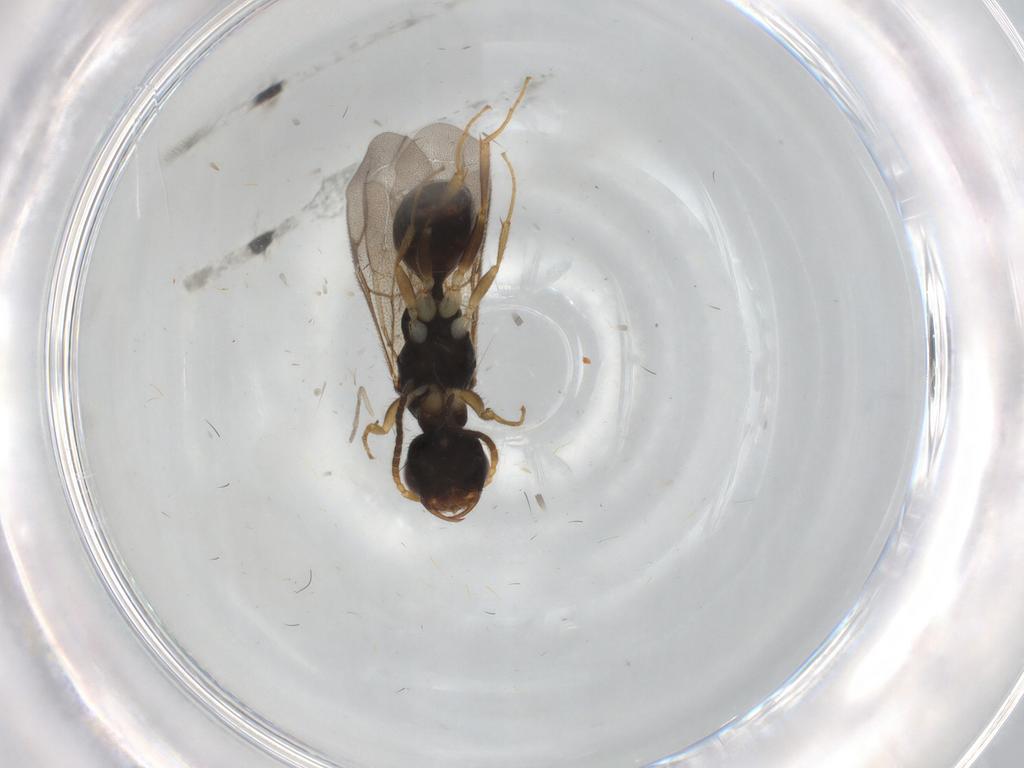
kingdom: Animalia
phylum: Arthropoda
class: Insecta
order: Hymenoptera
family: Bethylidae
